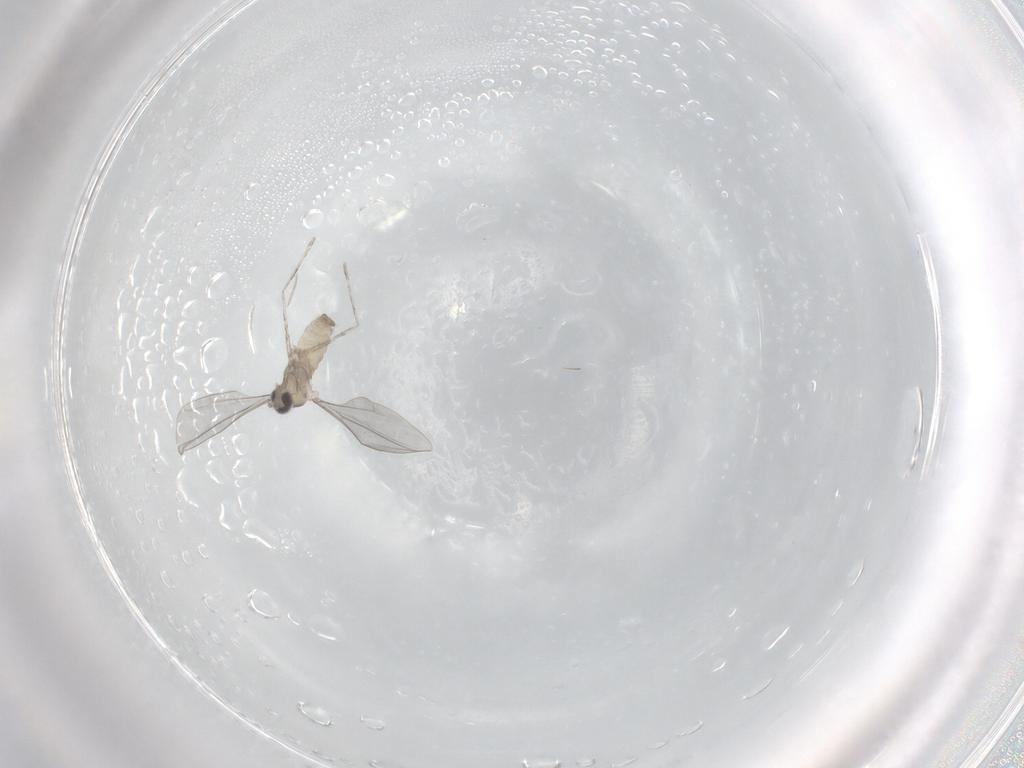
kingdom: Animalia
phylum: Arthropoda
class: Insecta
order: Diptera
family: Cecidomyiidae
